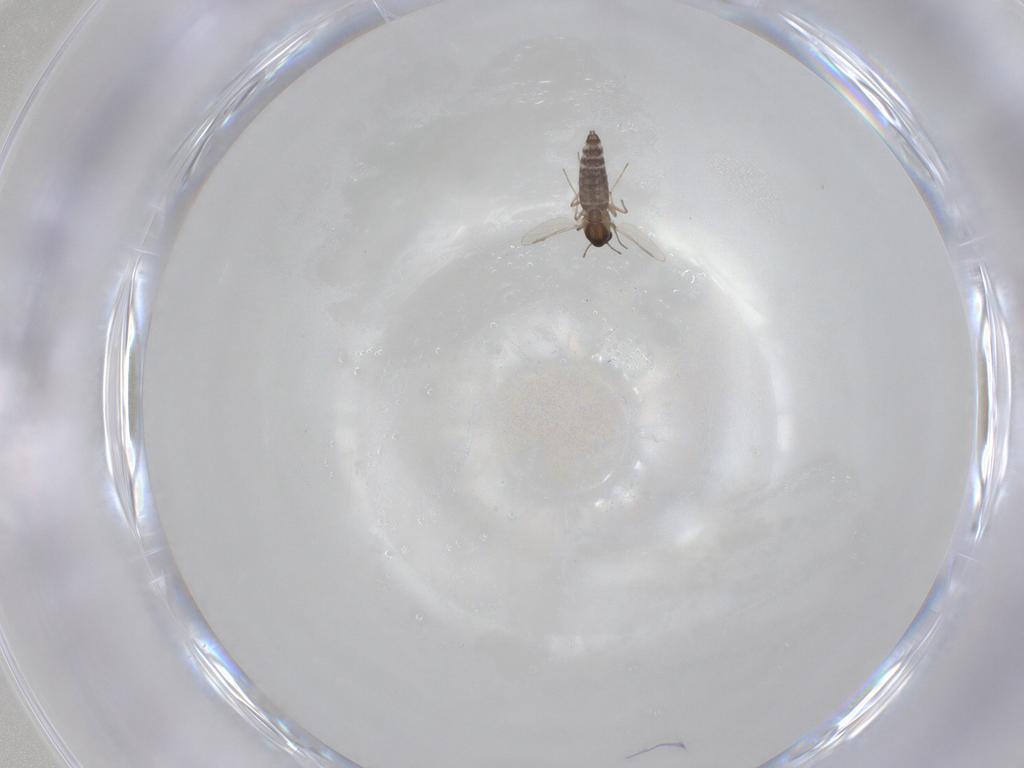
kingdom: Animalia
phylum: Arthropoda
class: Insecta
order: Diptera
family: Chironomidae
